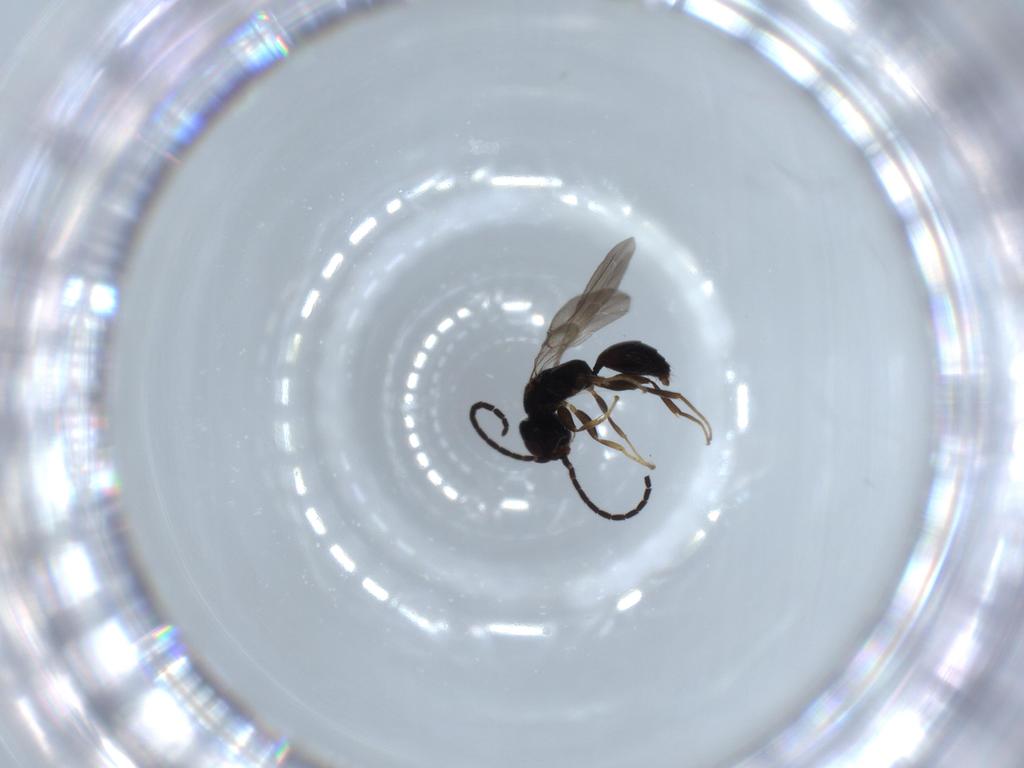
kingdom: Animalia
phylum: Arthropoda
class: Insecta
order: Hymenoptera
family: Bethylidae
